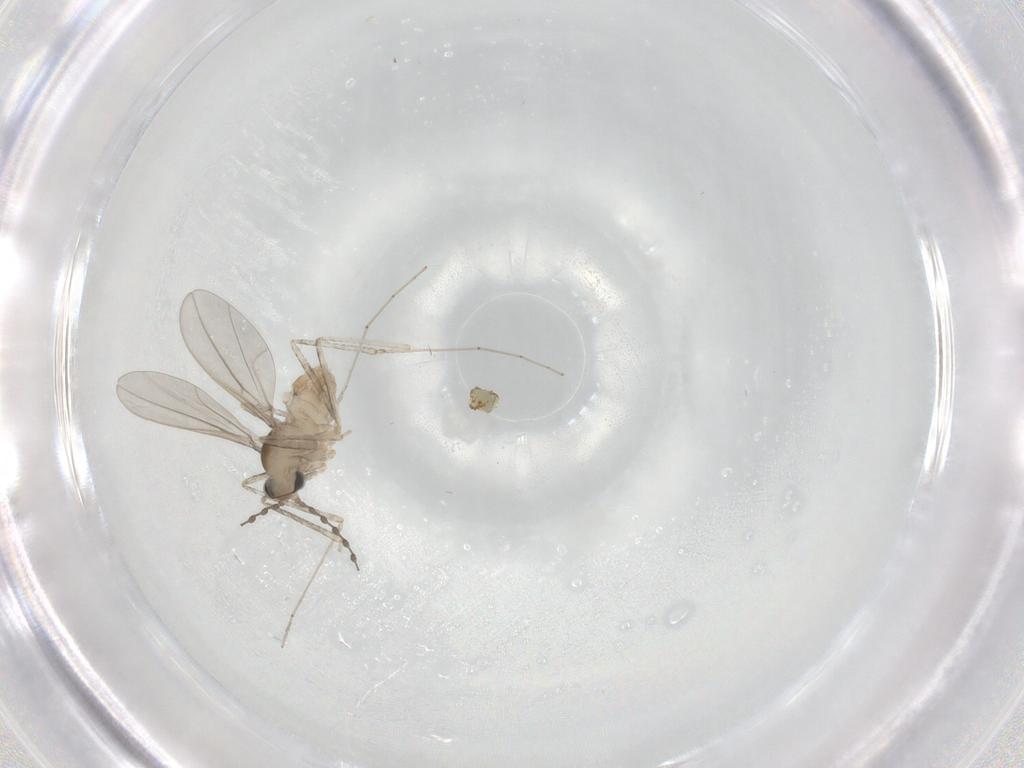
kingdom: Animalia
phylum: Arthropoda
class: Insecta
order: Diptera
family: Cecidomyiidae
